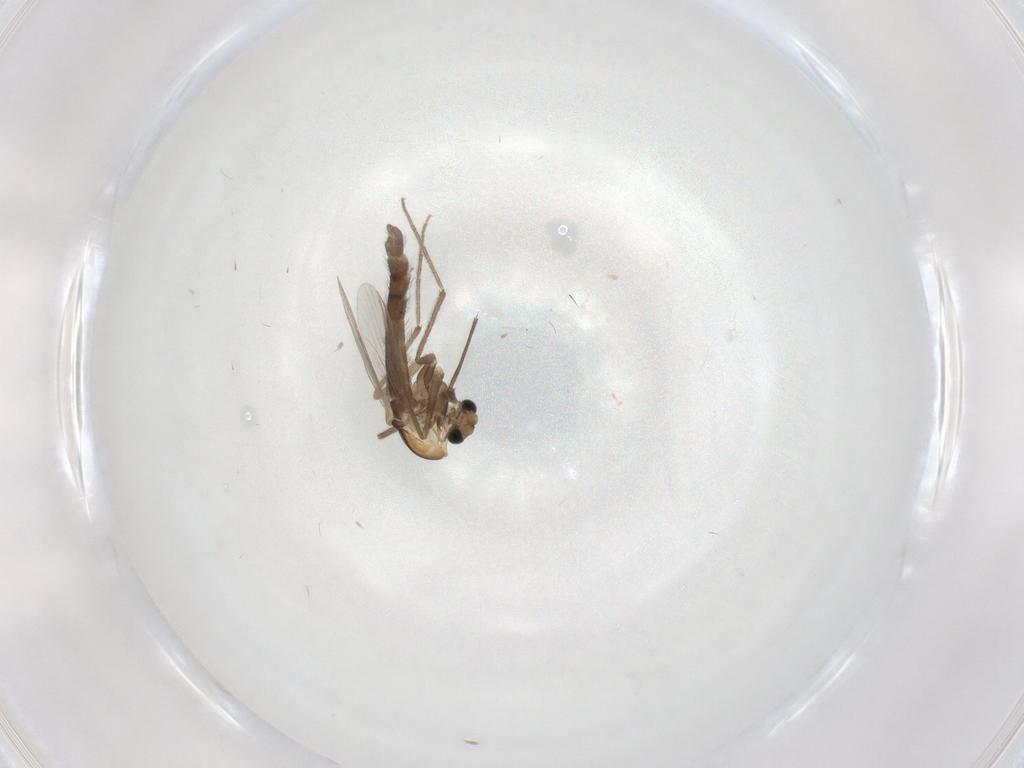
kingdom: Animalia
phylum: Arthropoda
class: Insecta
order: Diptera
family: Chironomidae
